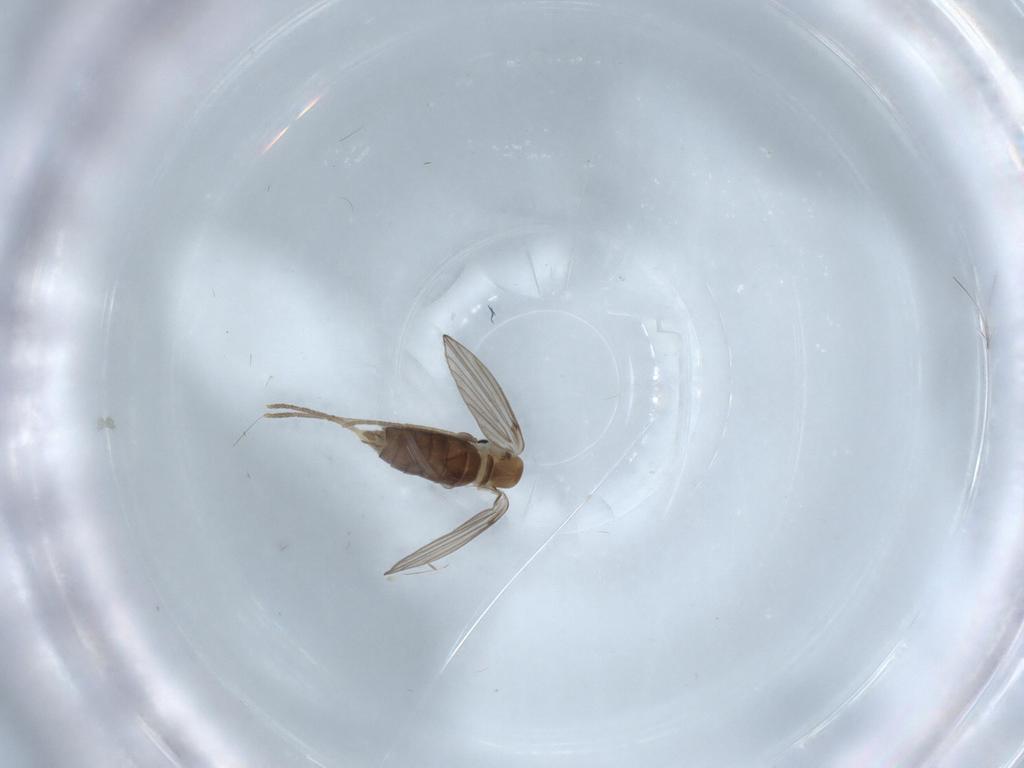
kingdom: Animalia
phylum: Arthropoda
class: Insecta
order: Diptera
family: Psychodidae
